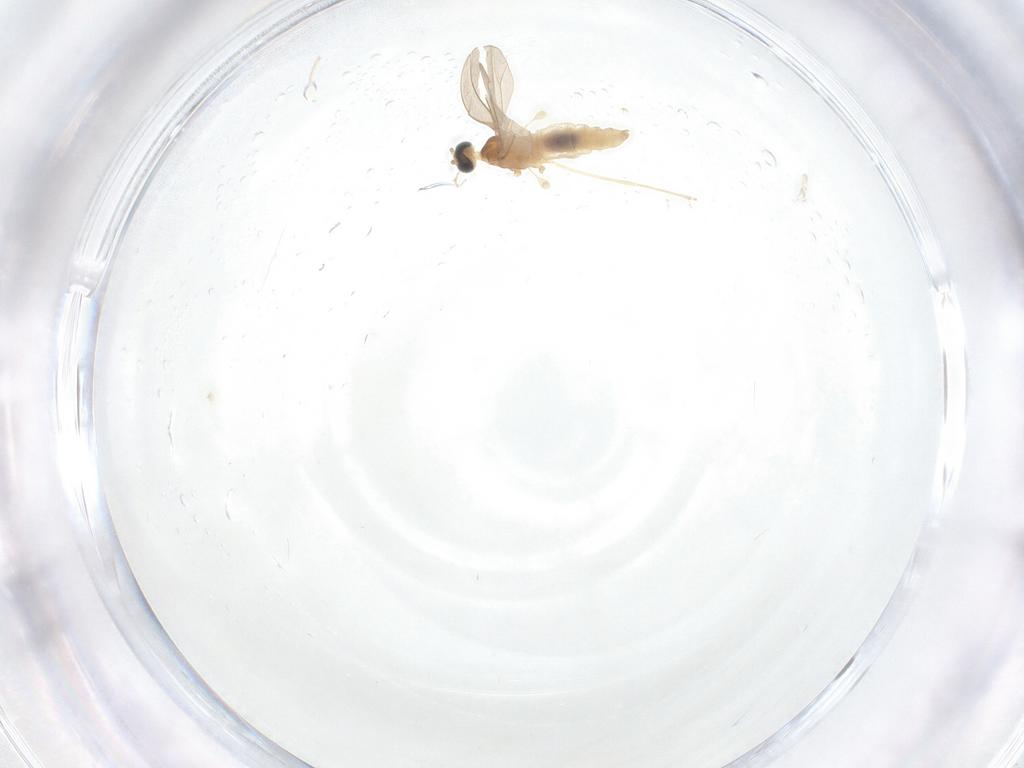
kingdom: Animalia
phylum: Arthropoda
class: Insecta
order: Diptera
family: Cecidomyiidae
